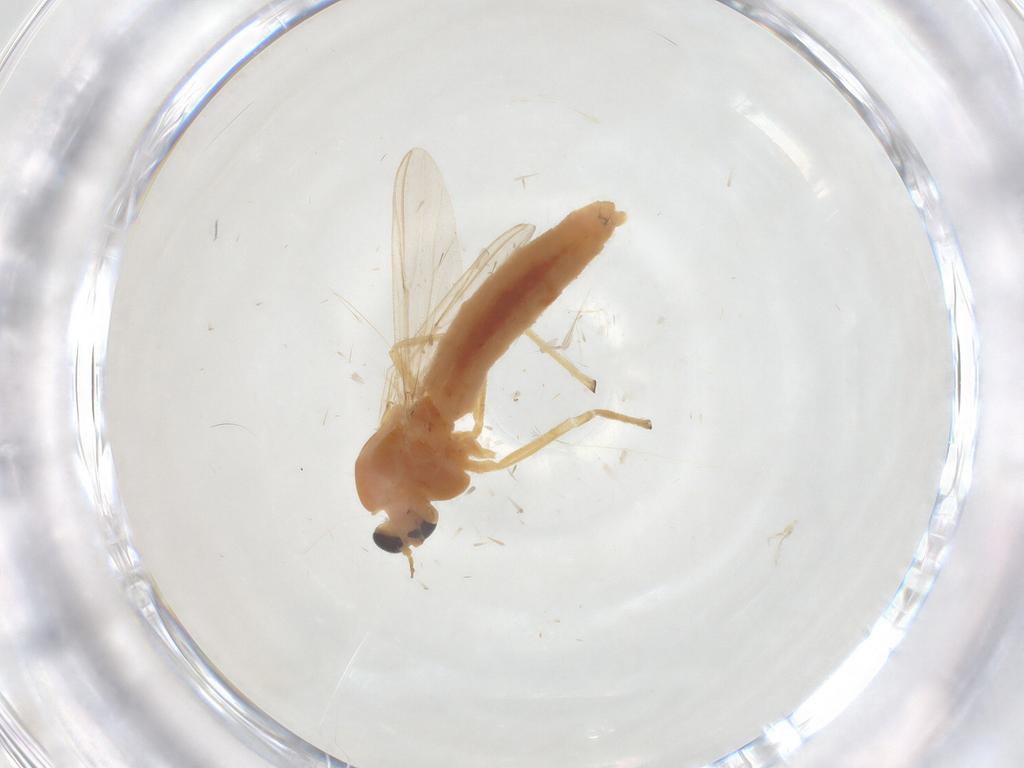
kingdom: Animalia
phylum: Arthropoda
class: Insecta
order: Diptera
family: Chironomidae
